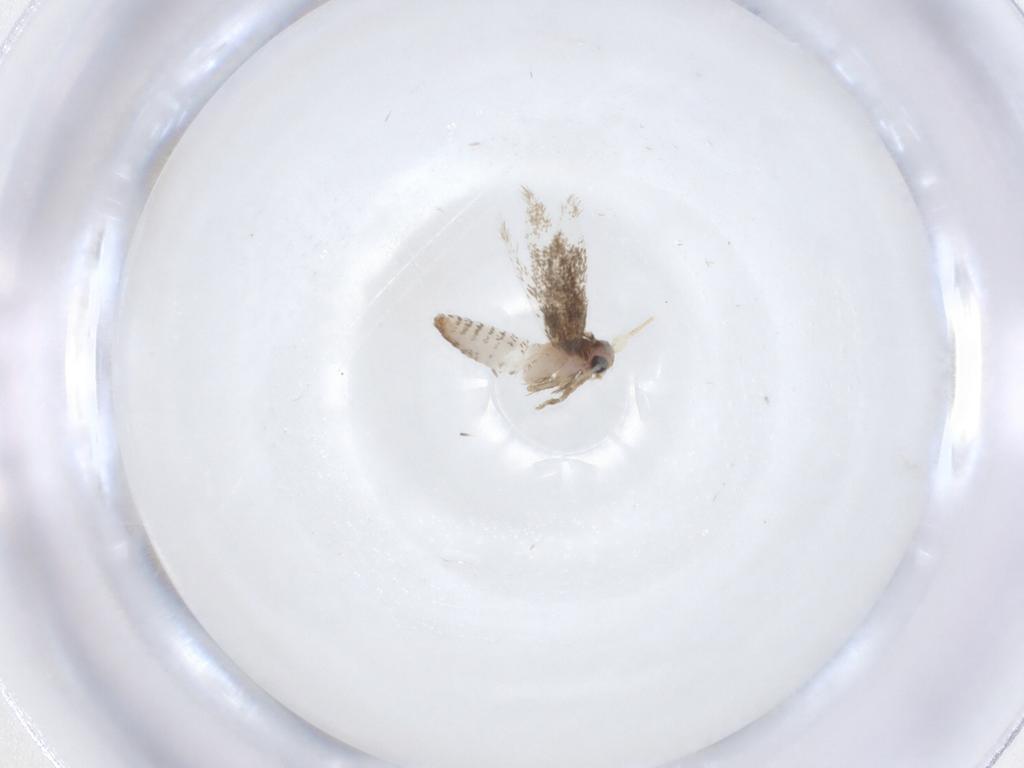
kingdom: Animalia
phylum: Arthropoda
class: Insecta
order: Lepidoptera
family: Nepticulidae
